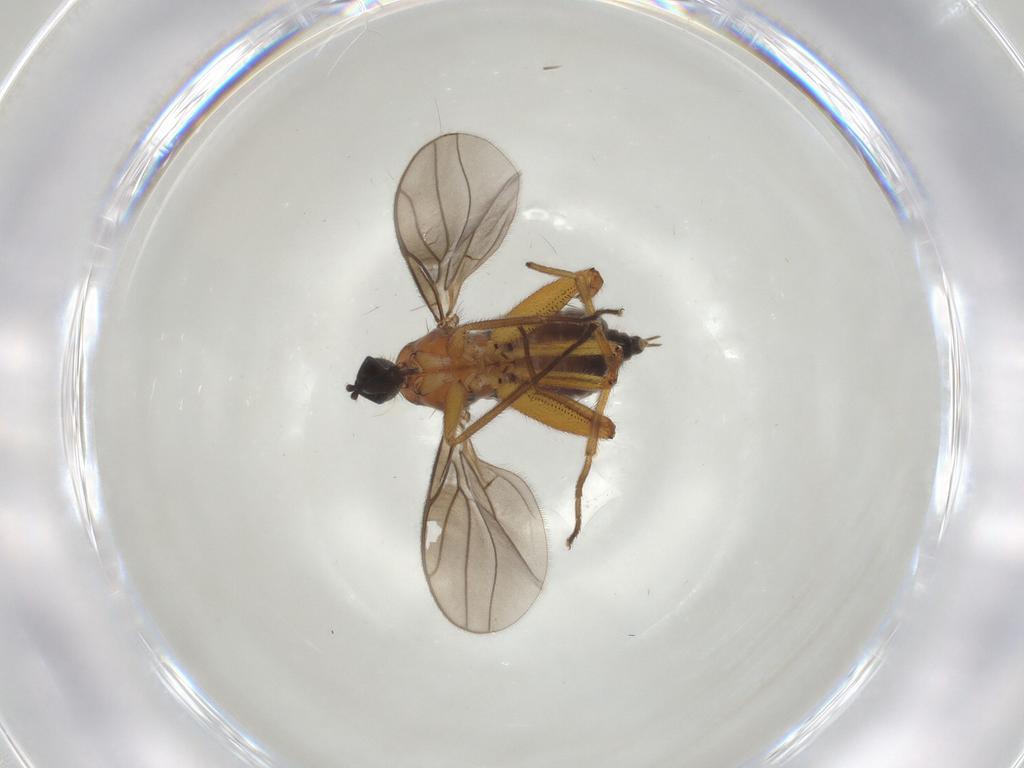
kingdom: Animalia
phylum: Arthropoda
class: Insecta
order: Diptera
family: Hybotidae
